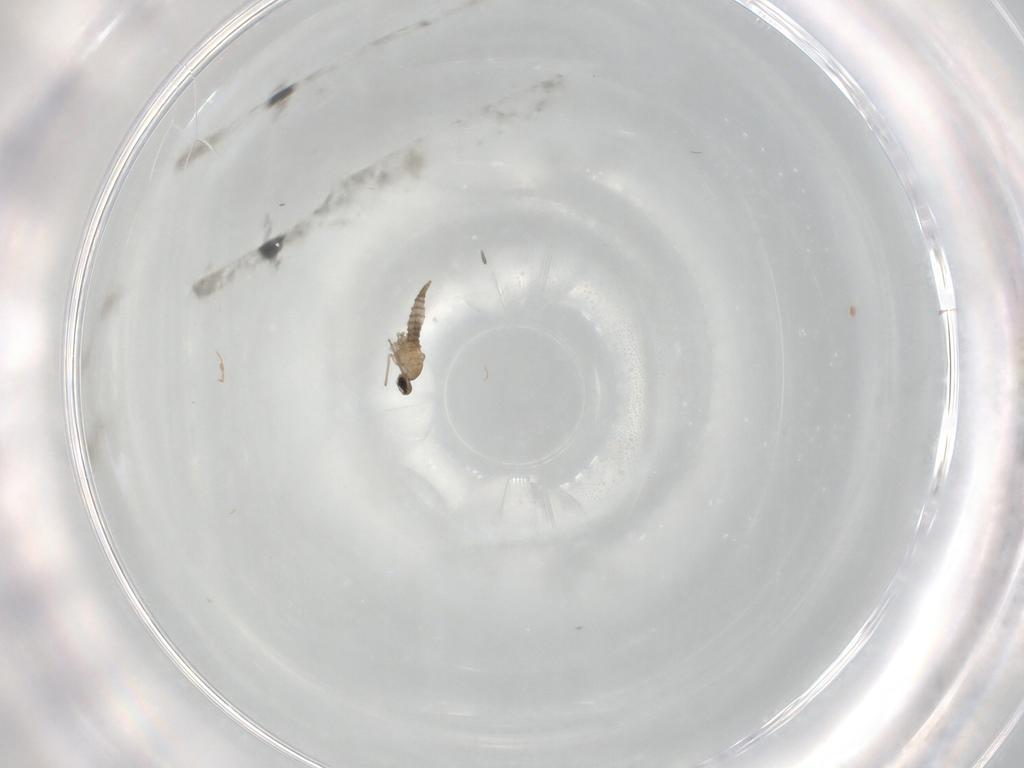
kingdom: Animalia
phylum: Arthropoda
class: Insecta
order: Diptera
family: Cecidomyiidae
